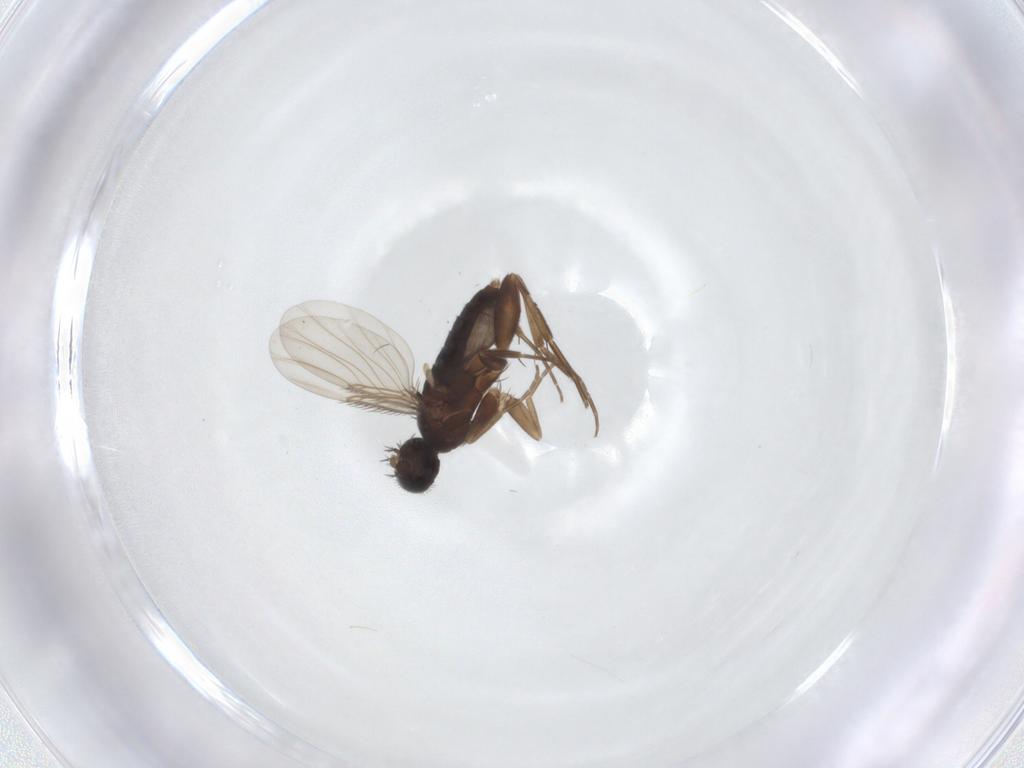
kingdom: Animalia
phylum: Arthropoda
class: Insecta
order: Diptera
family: Phoridae
